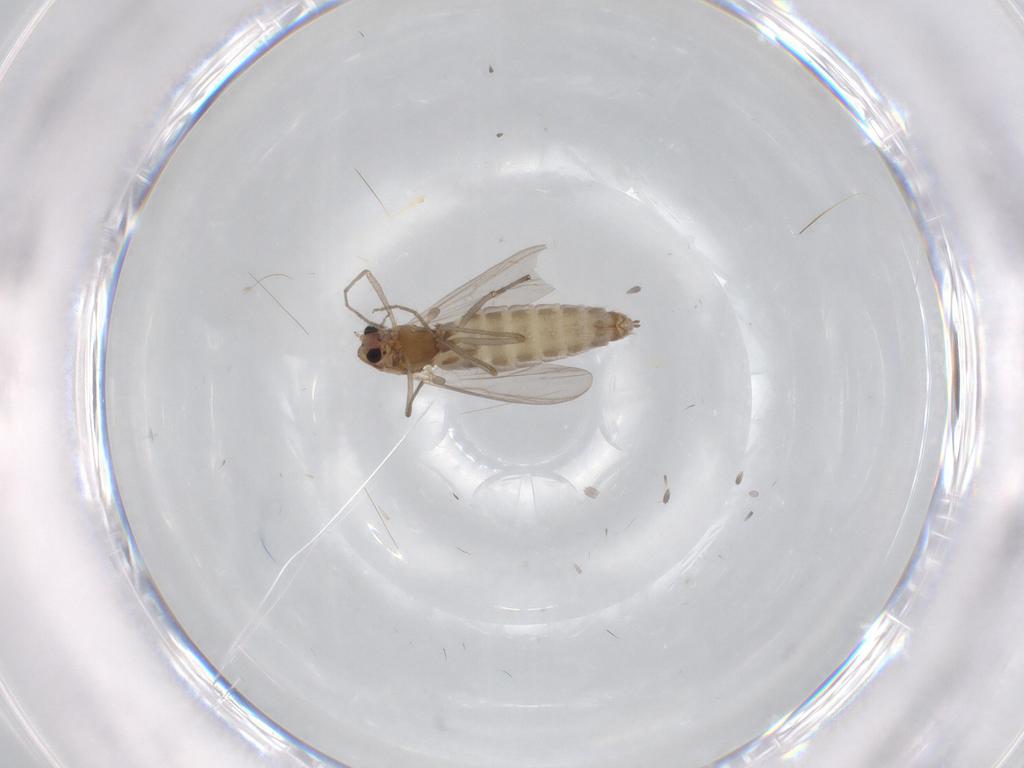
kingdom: Animalia
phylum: Arthropoda
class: Insecta
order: Diptera
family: Chironomidae
